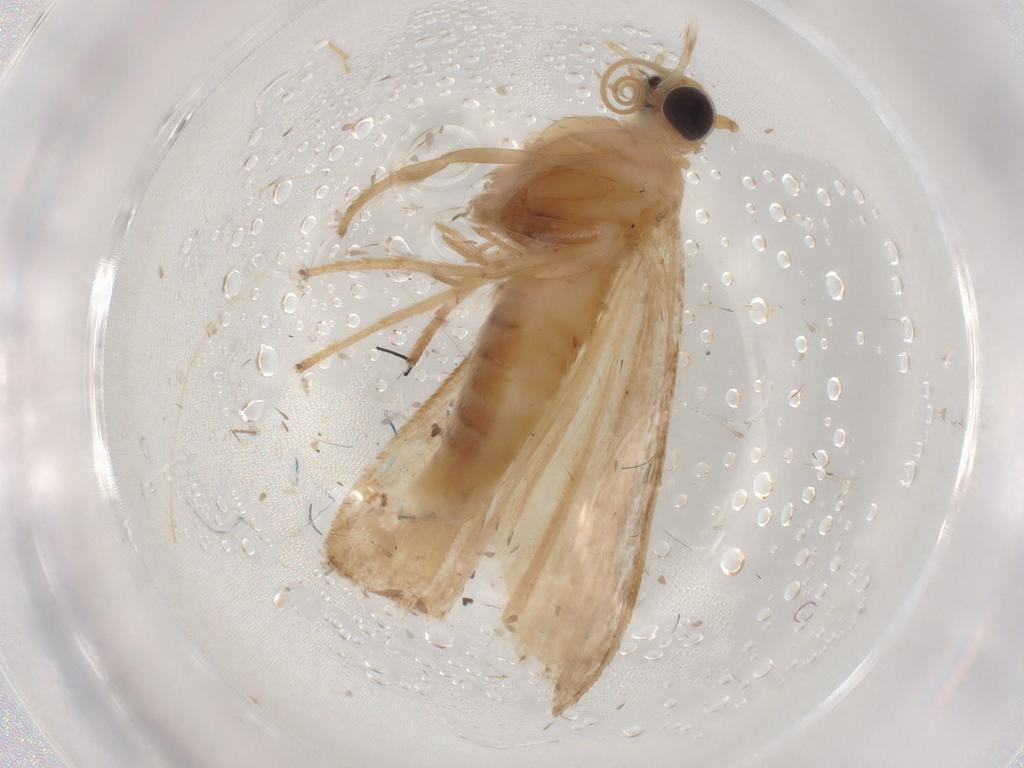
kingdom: Animalia
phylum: Arthropoda
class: Insecta
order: Lepidoptera
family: Pyralidae
